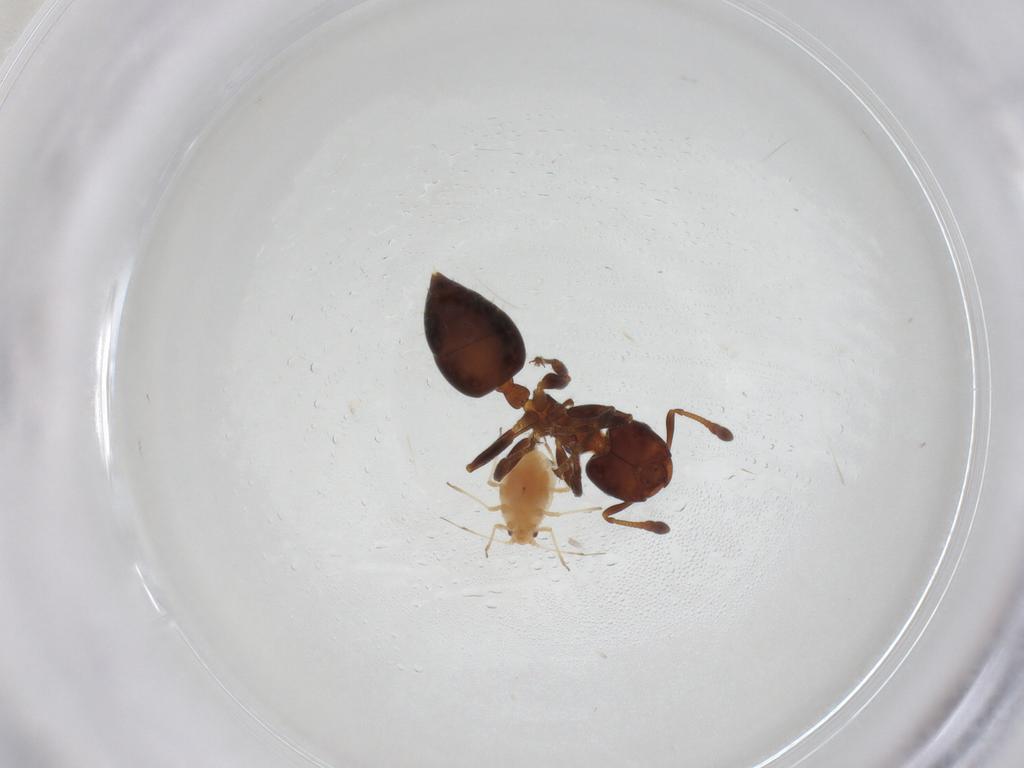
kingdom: Animalia
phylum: Arthropoda
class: Insecta
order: Hymenoptera
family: Formicidae
